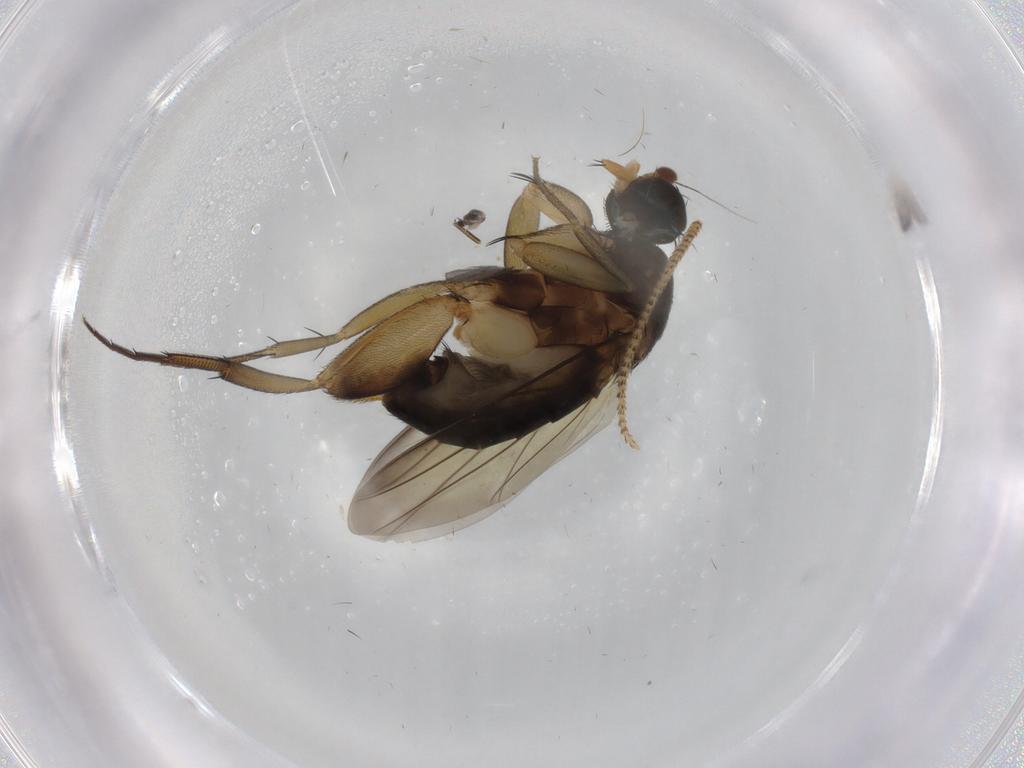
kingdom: Animalia
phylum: Arthropoda
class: Insecta
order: Diptera
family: Phoridae
